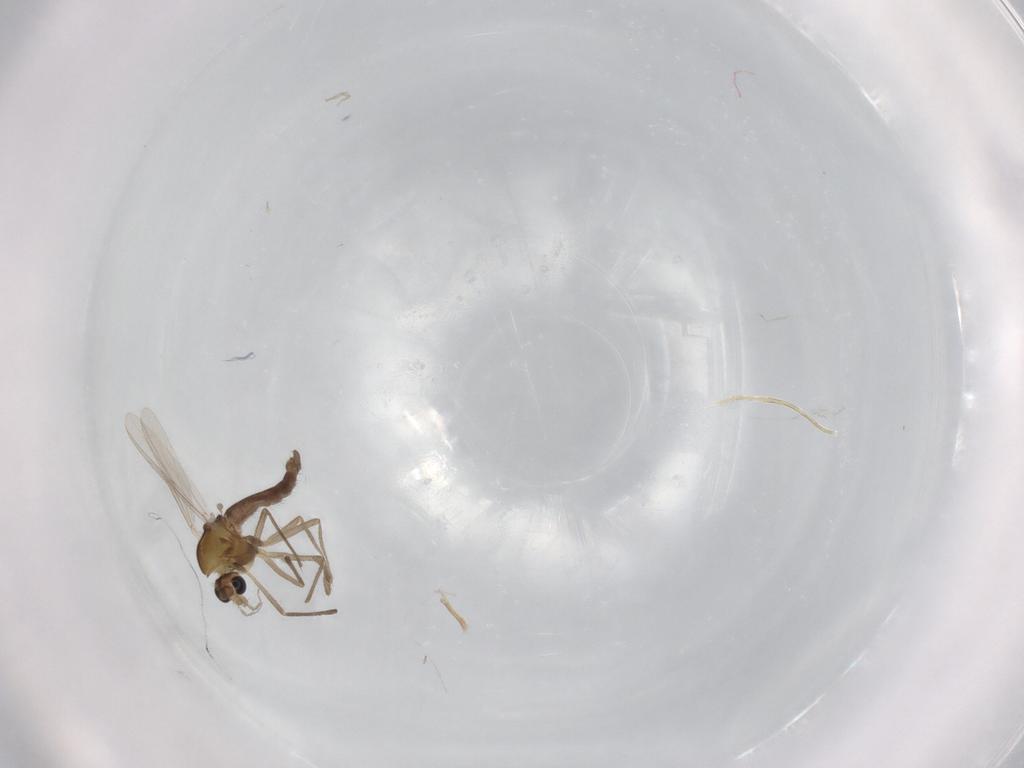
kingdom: Animalia
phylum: Arthropoda
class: Insecta
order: Diptera
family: Chironomidae
